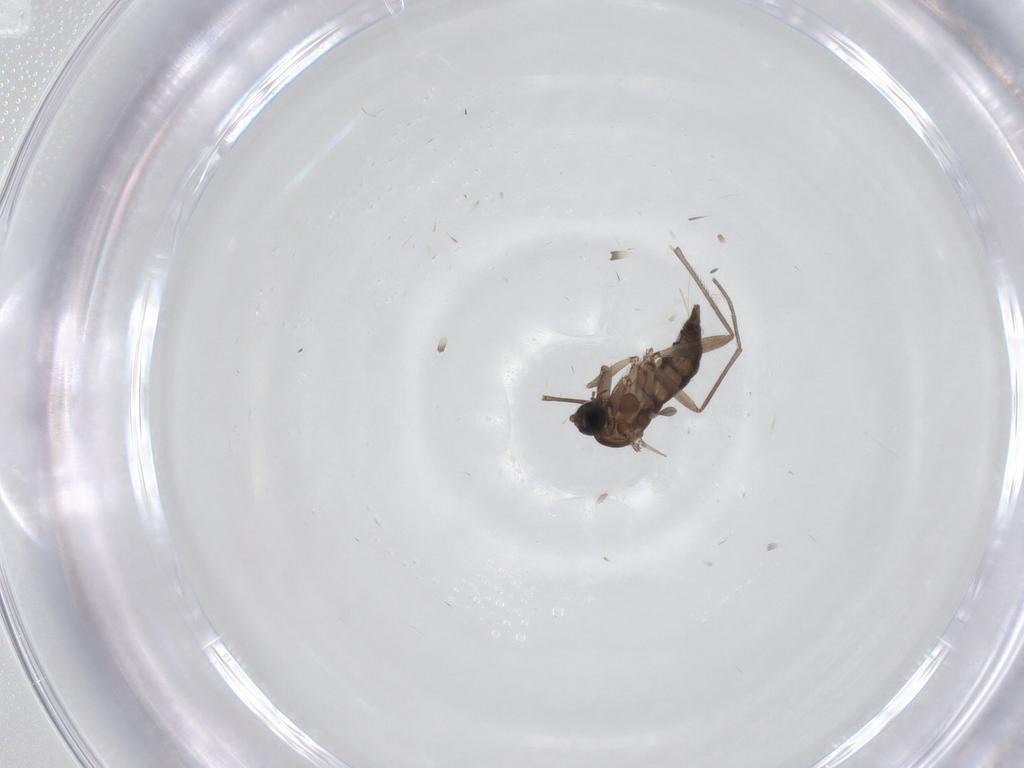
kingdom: Animalia
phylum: Arthropoda
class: Insecta
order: Diptera
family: Sciaridae
